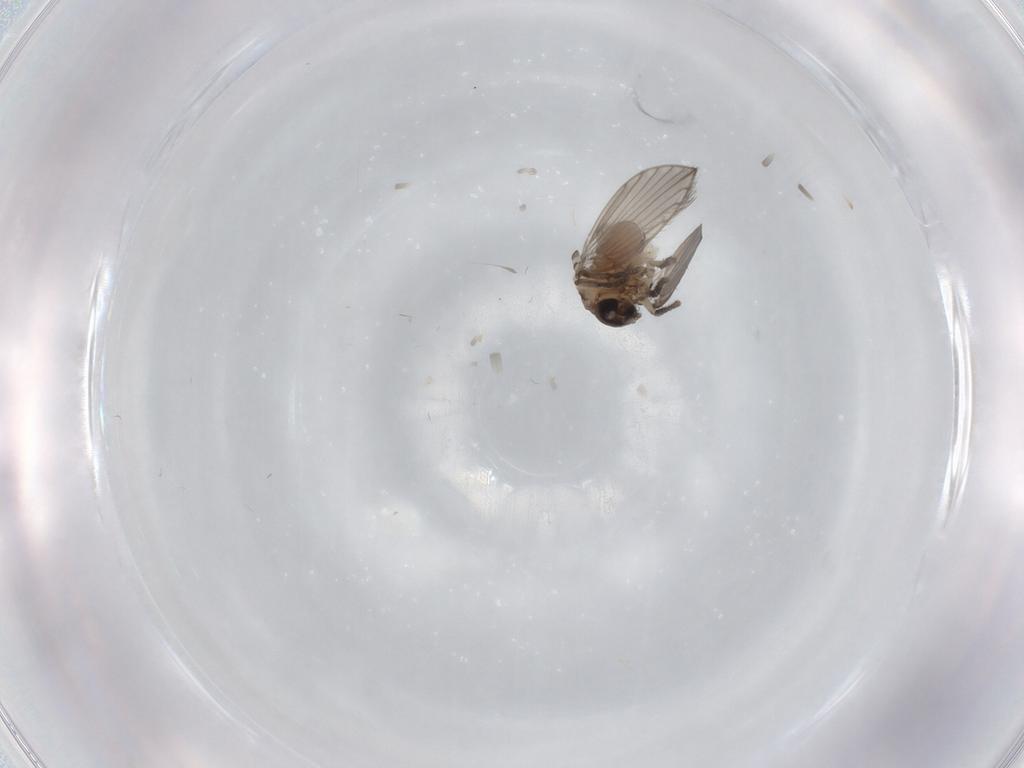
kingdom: Animalia
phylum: Arthropoda
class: Insecta
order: Diptera
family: Psychodidae
